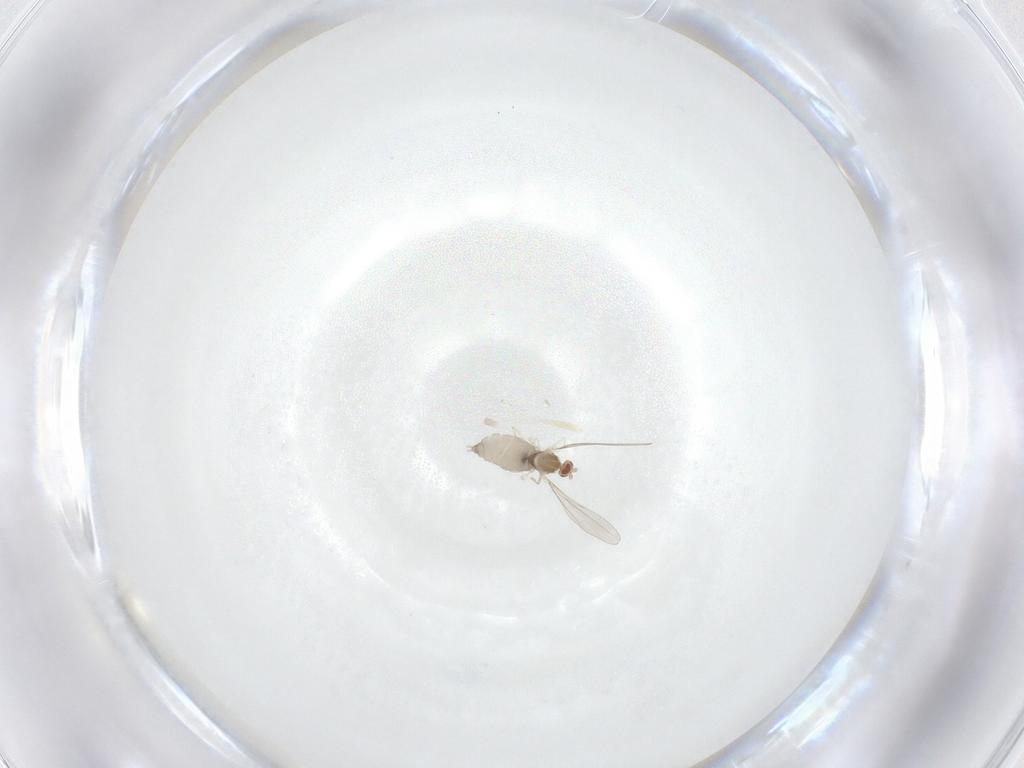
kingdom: Animalia
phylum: Arthropoda
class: Insecta
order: Diptera
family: Cecidomyiidae
